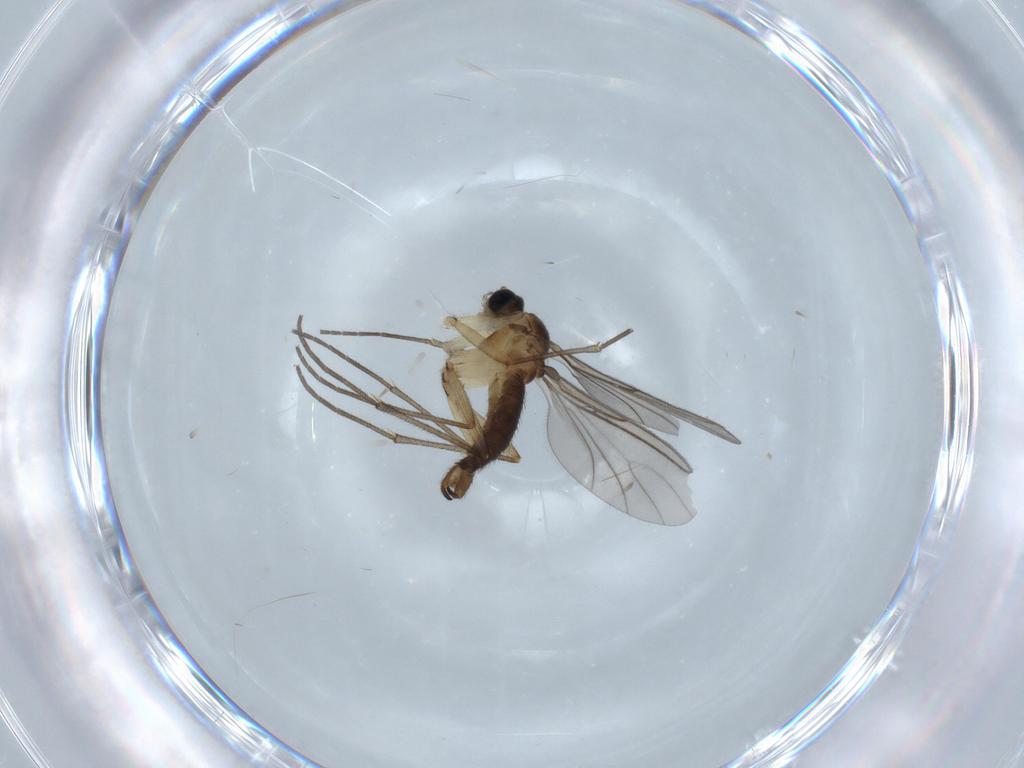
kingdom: Animalia
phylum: Arthropoda
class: Insecta
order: Diptera
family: Sciaridae
